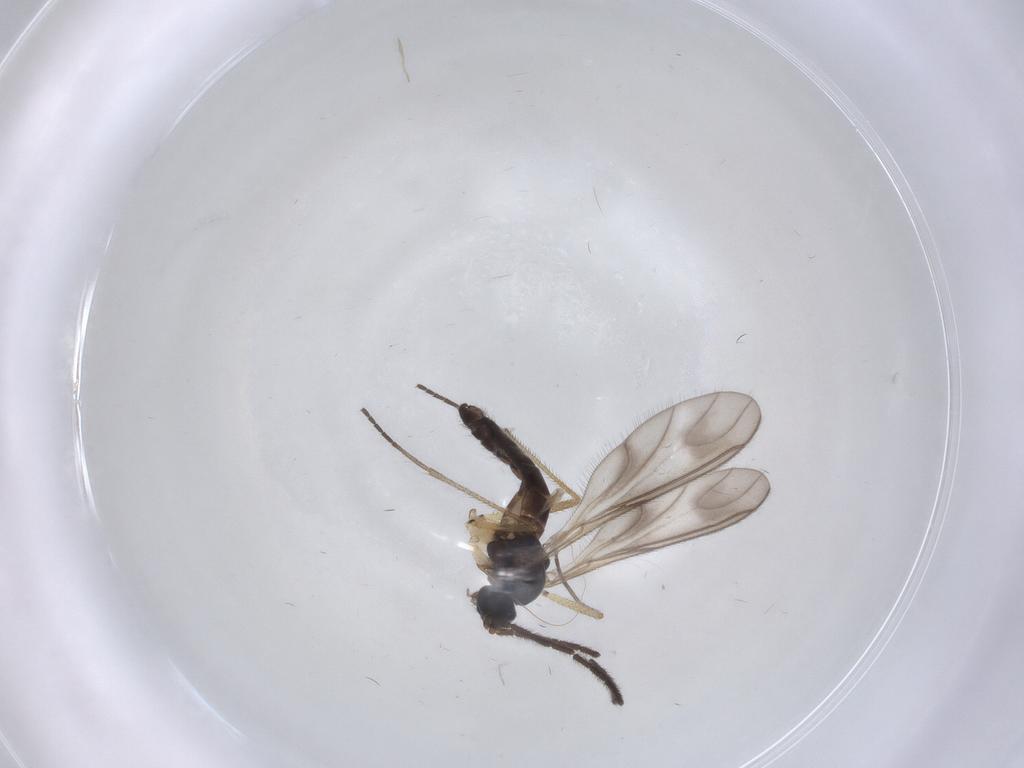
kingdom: Animalia
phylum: Arthropoda
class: Insecta
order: Diptera
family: Sciaridae
